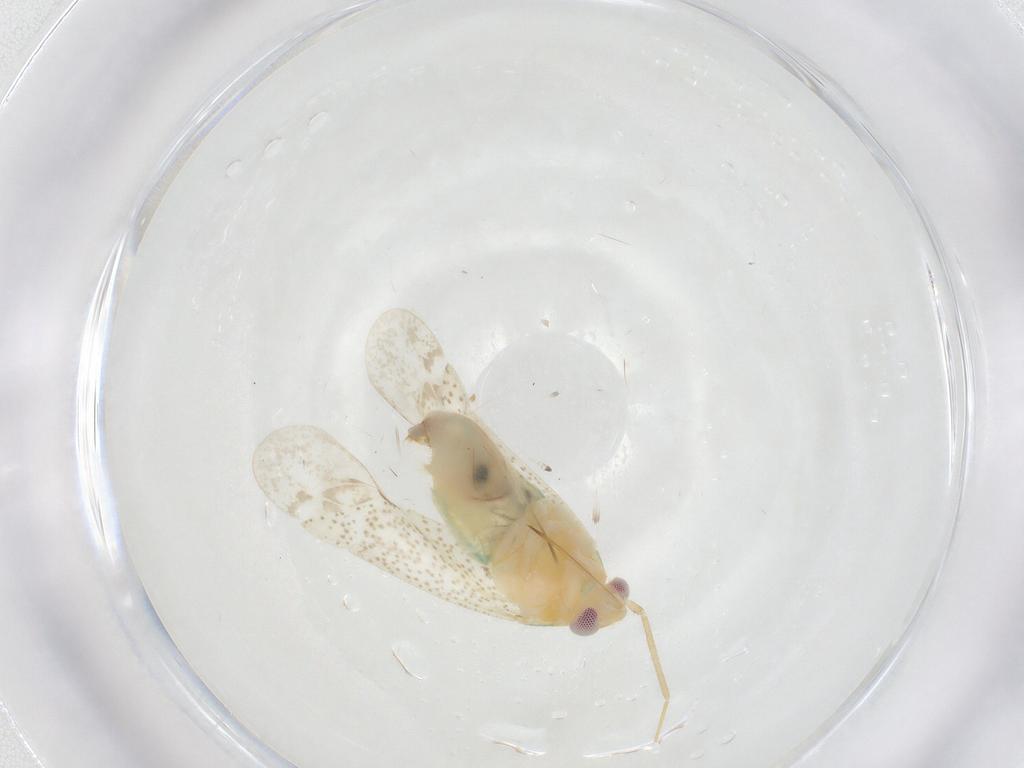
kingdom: Animalia
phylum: Arthropoda
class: Insecta
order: Hemiptera
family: Miridae
